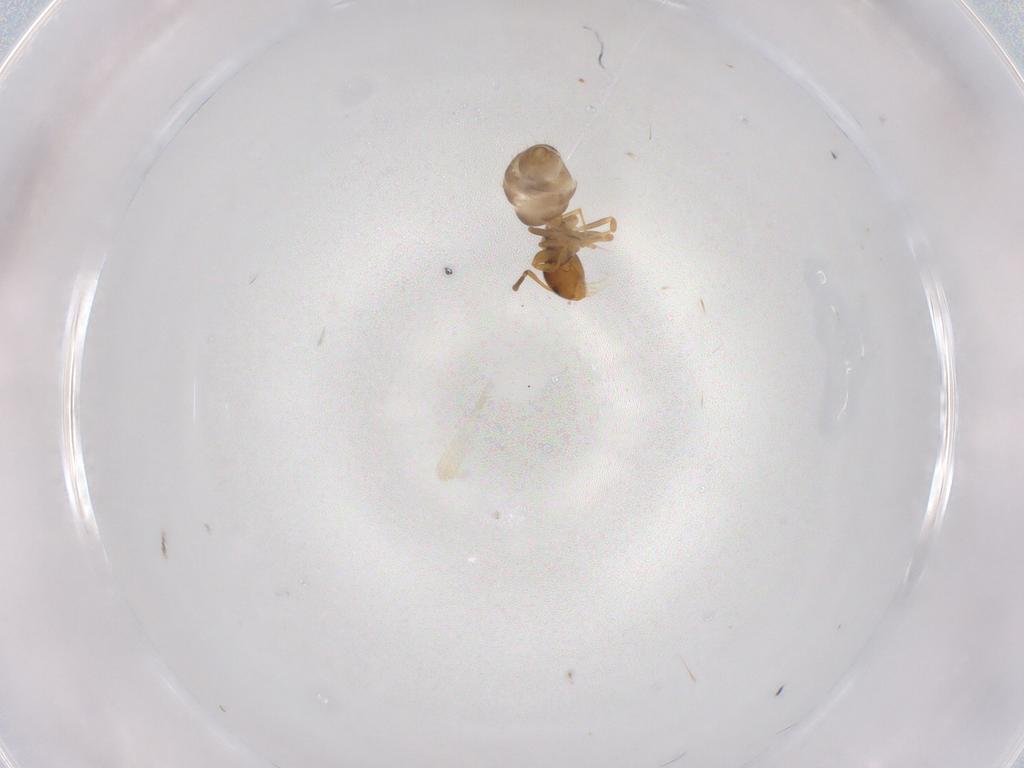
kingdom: Animalia
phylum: Arthropoda
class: Insecta
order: Hymenoptera
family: Formicidae
